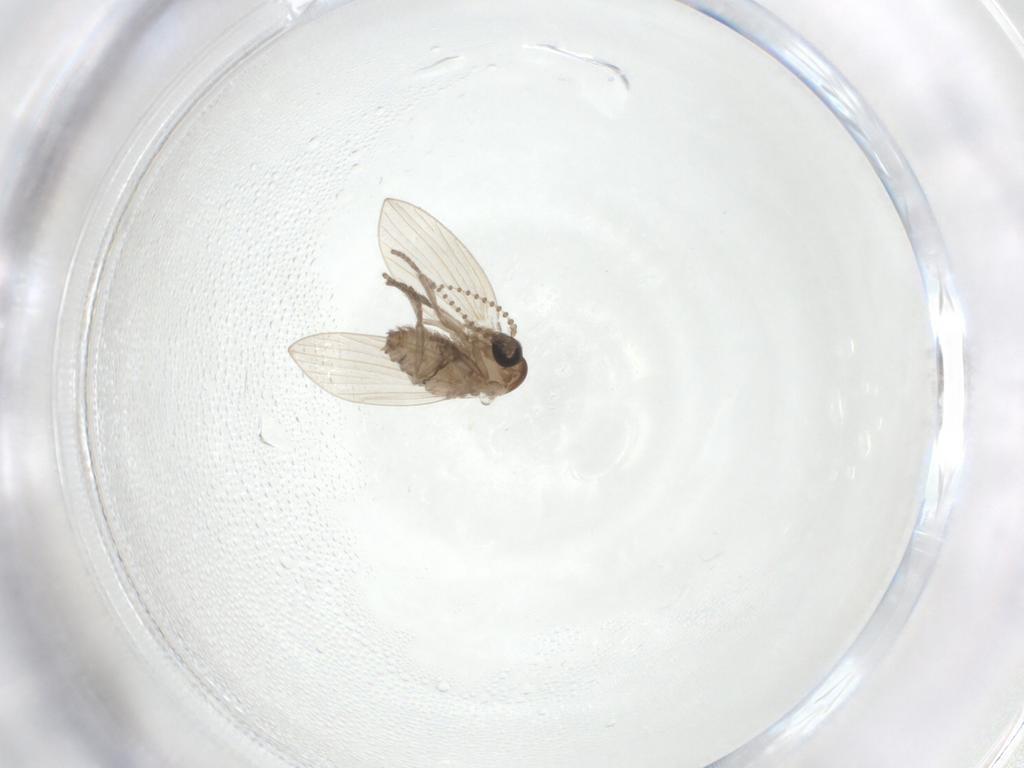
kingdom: Animalia
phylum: Arthropoda
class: Insecta
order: Diptera
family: Psychodidae
